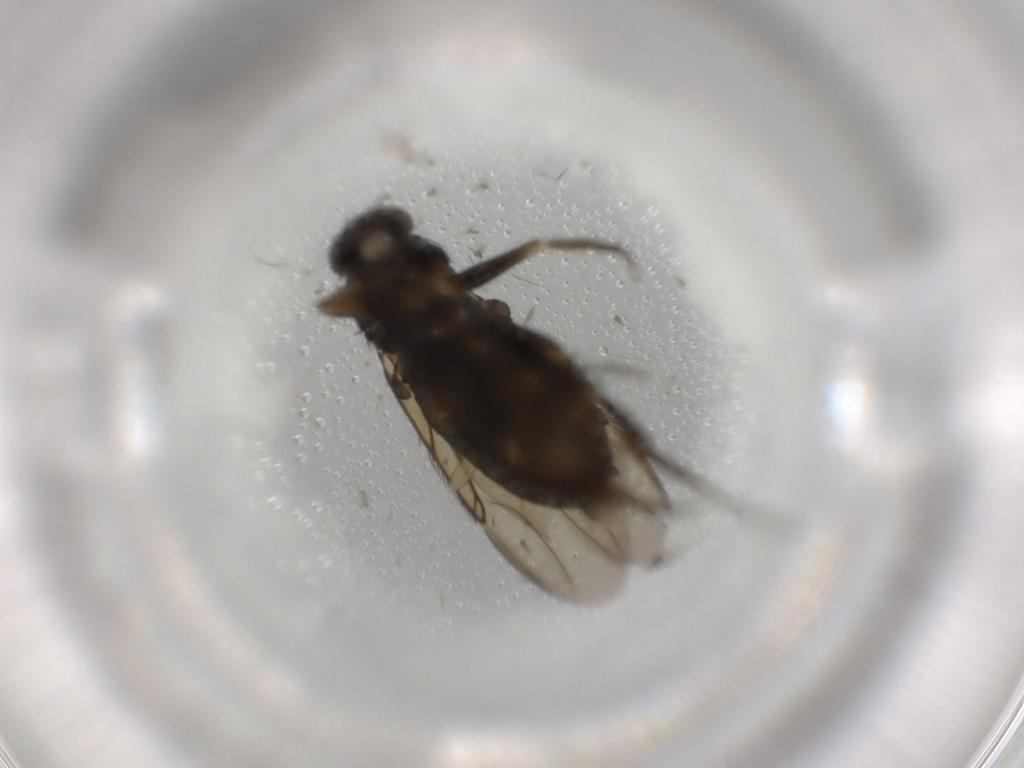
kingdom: Animalia
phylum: Arthropoda
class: Insecta
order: Diptera
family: Phoridae
